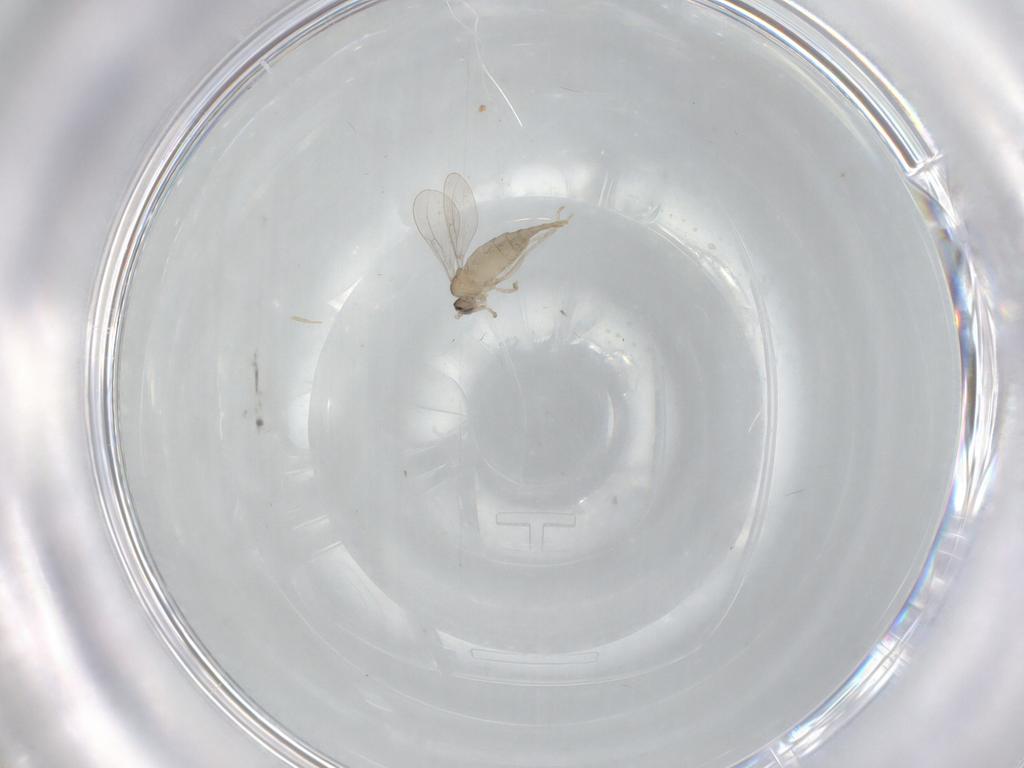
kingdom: Animalia
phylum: Arthropoda
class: Insecta
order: Diptera
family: Cecidomyiidae
